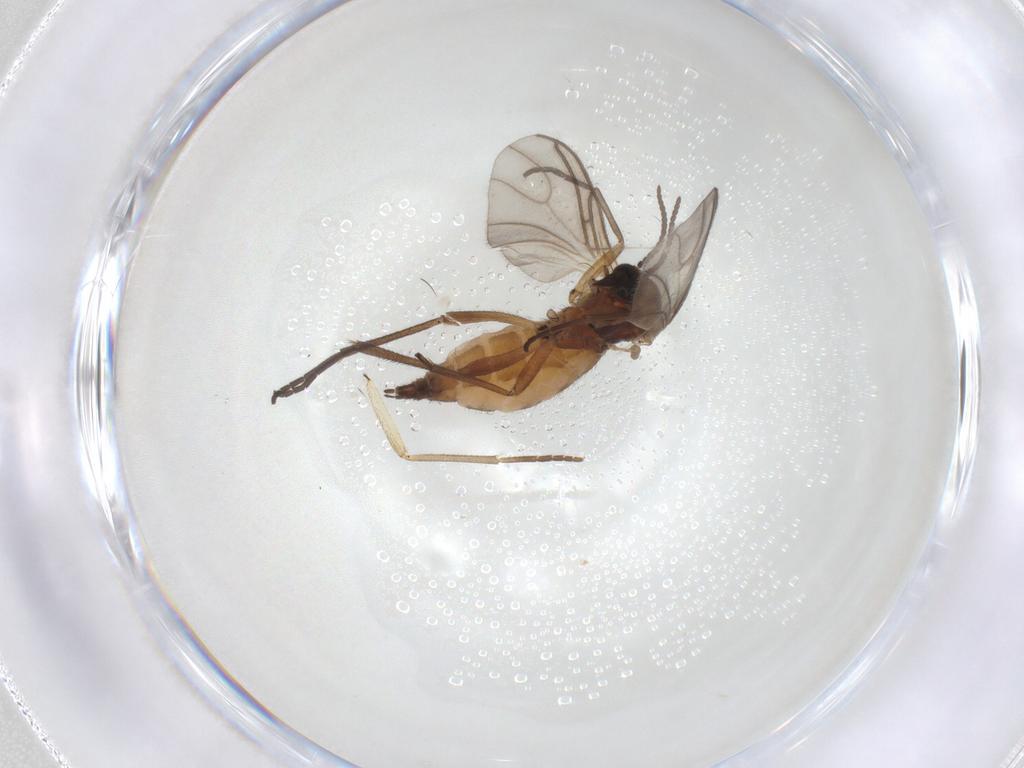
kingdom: Animalia
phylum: Arthropoda
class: Insecta
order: Diptera
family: Sciaridae
